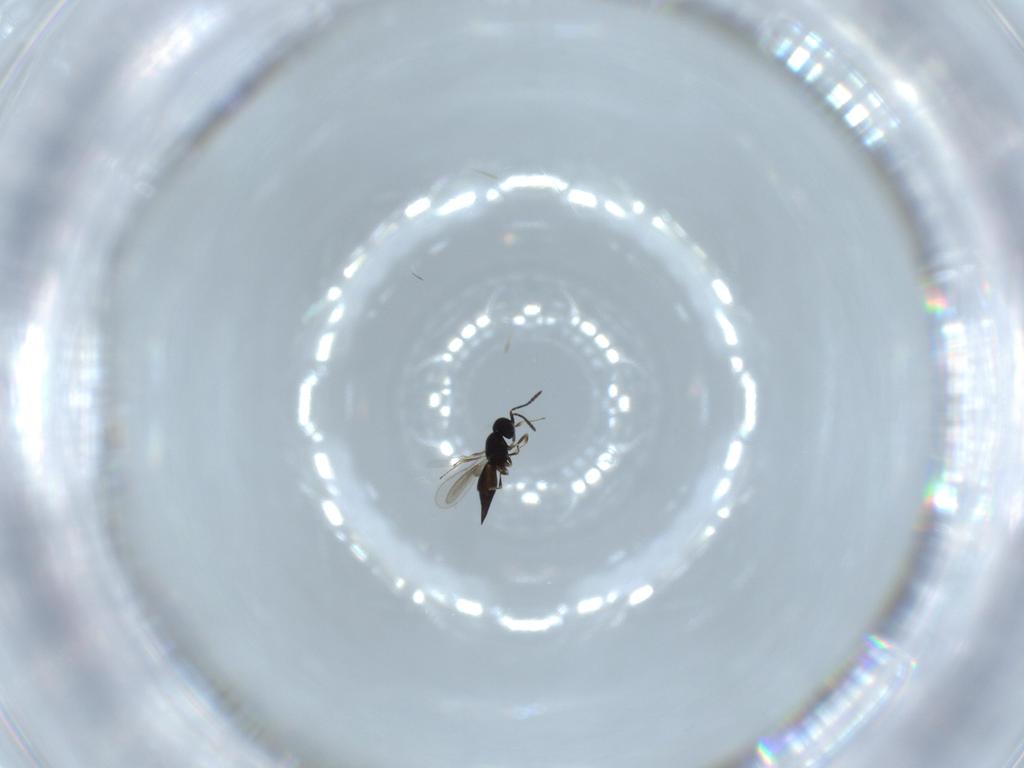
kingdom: Animalia
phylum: Arthropoda
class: Insecta
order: Hymenoptera
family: Scelionidae
